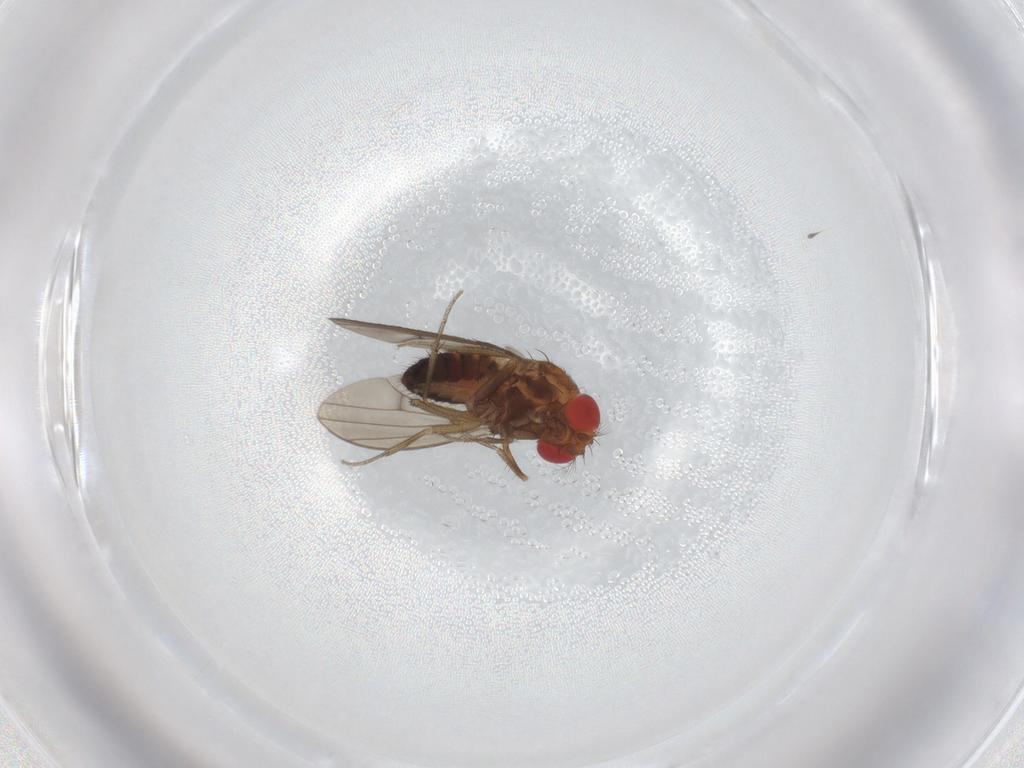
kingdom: Animalia
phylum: Arthropoda
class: Insecta
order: Diptera
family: Drosophilidae
